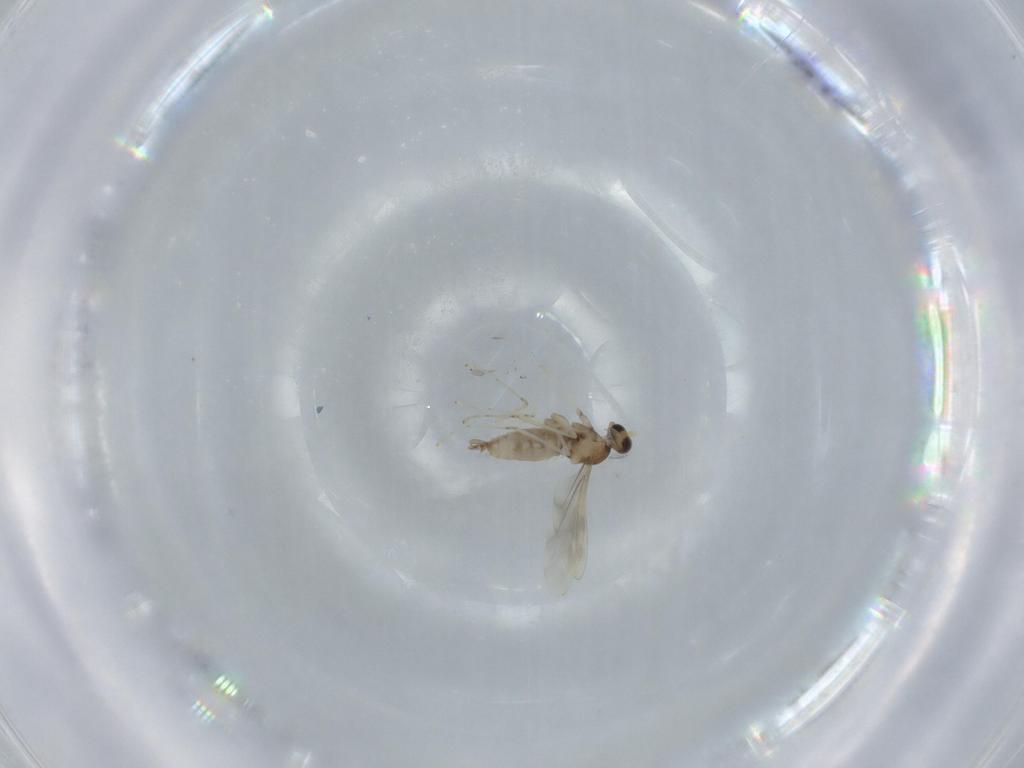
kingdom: Animalia
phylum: Arthropoda
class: Insecta
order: Diptera
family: Cecidomyiidae
